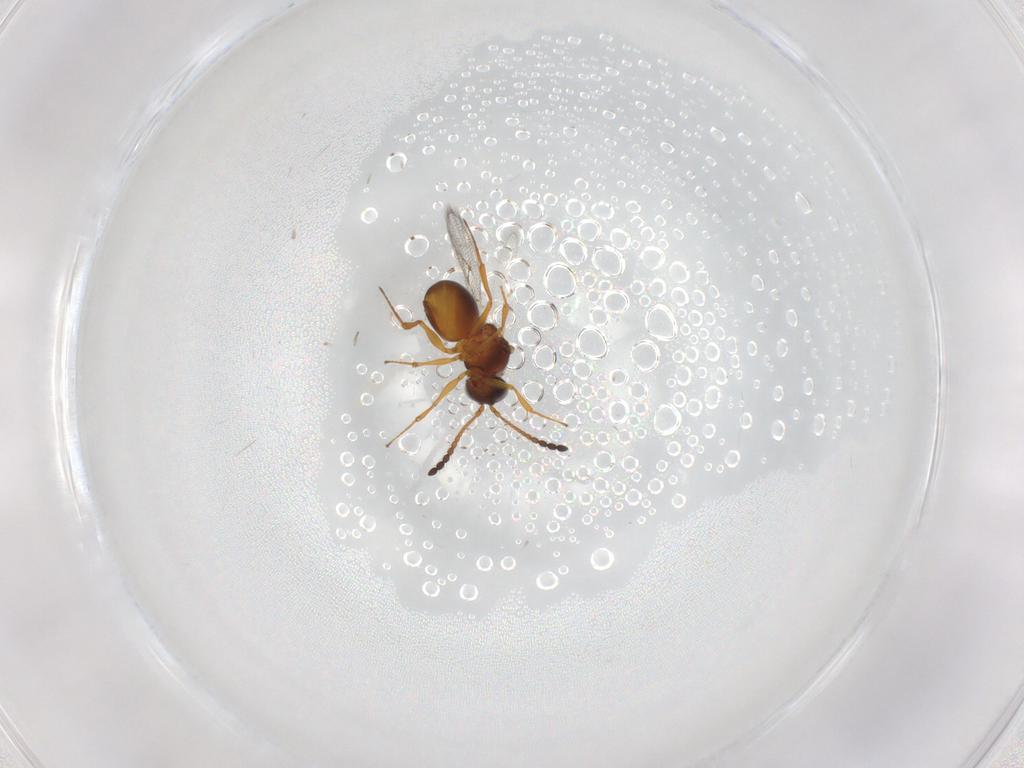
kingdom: Animalia
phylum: Arthropoda
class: Insecta
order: Hymenoptera
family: Figitidae
